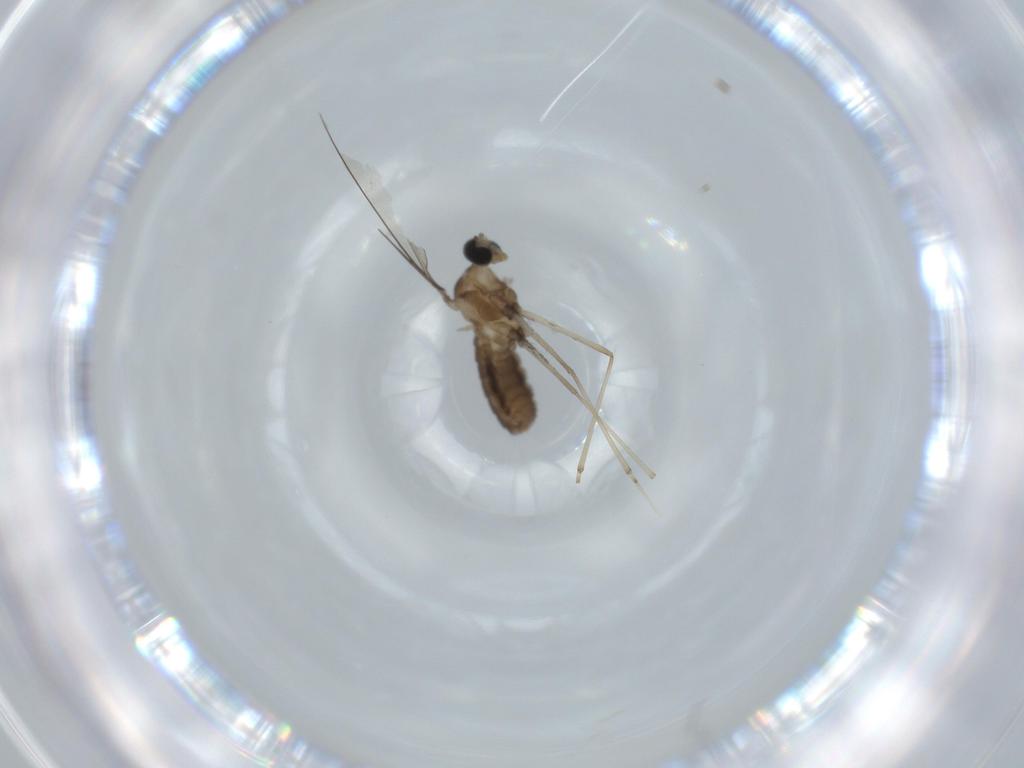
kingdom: Animalia
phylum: Arthropoda
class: Insecta
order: Diptera
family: Cecidomyiidae
